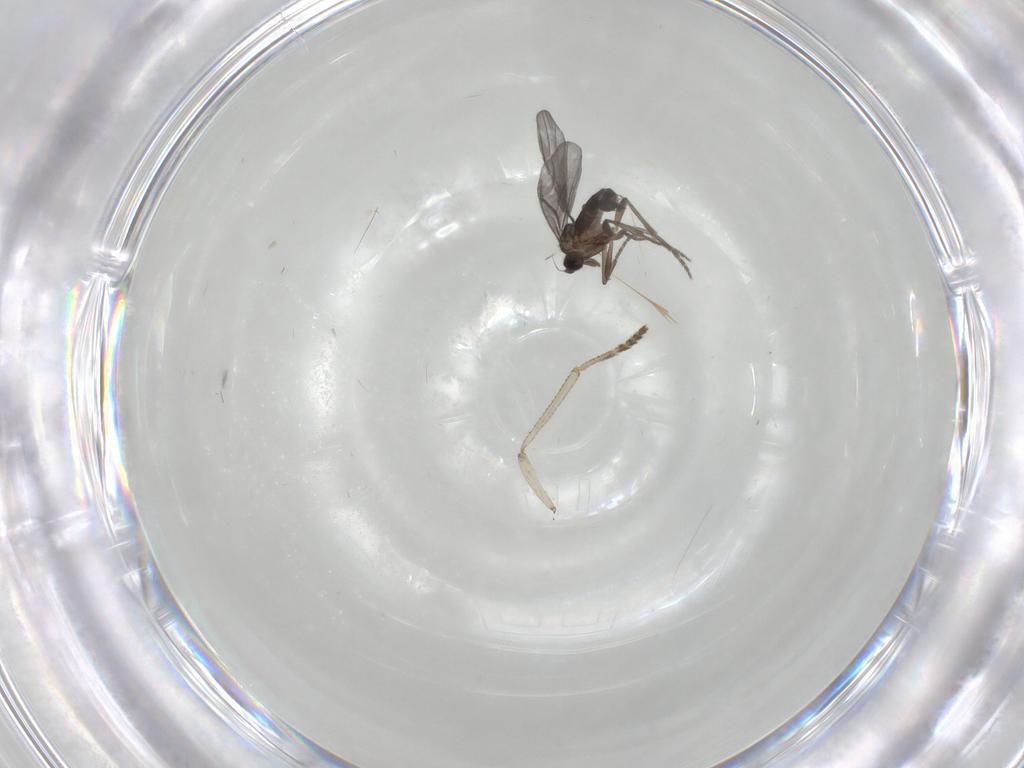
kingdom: Animalia
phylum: Arthropoda
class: Insecta
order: Diptera
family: Psychodidae
